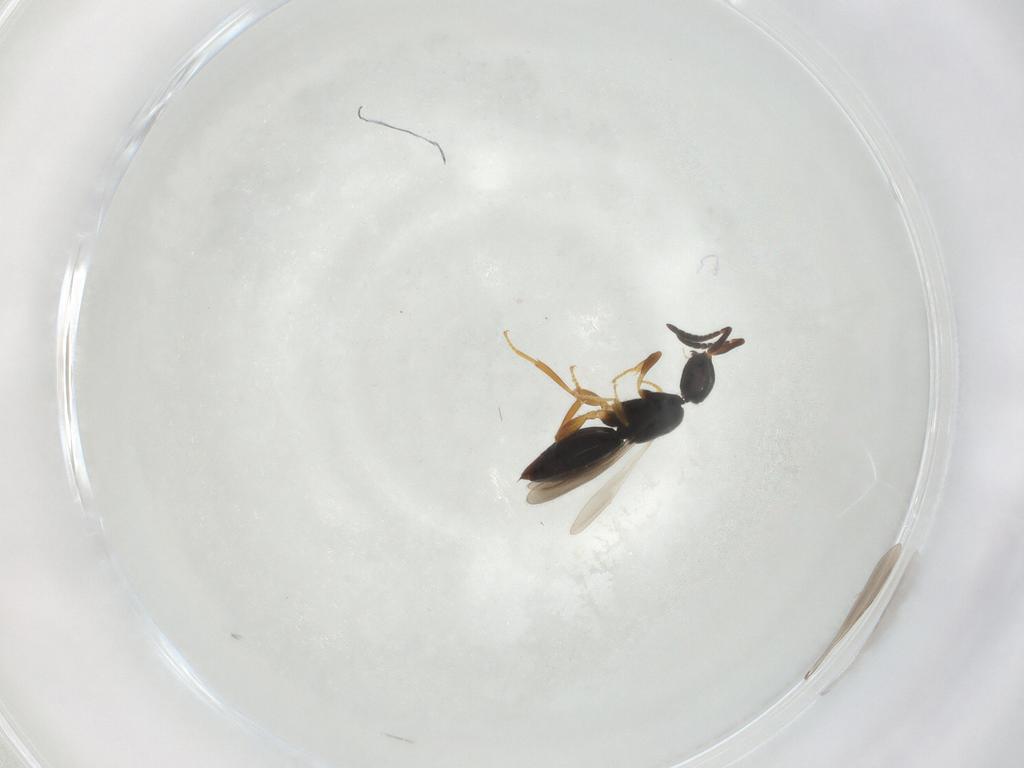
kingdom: Animalia
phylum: Arthropoda
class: Insecta
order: Hymenoptera
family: Ceraphronidae
